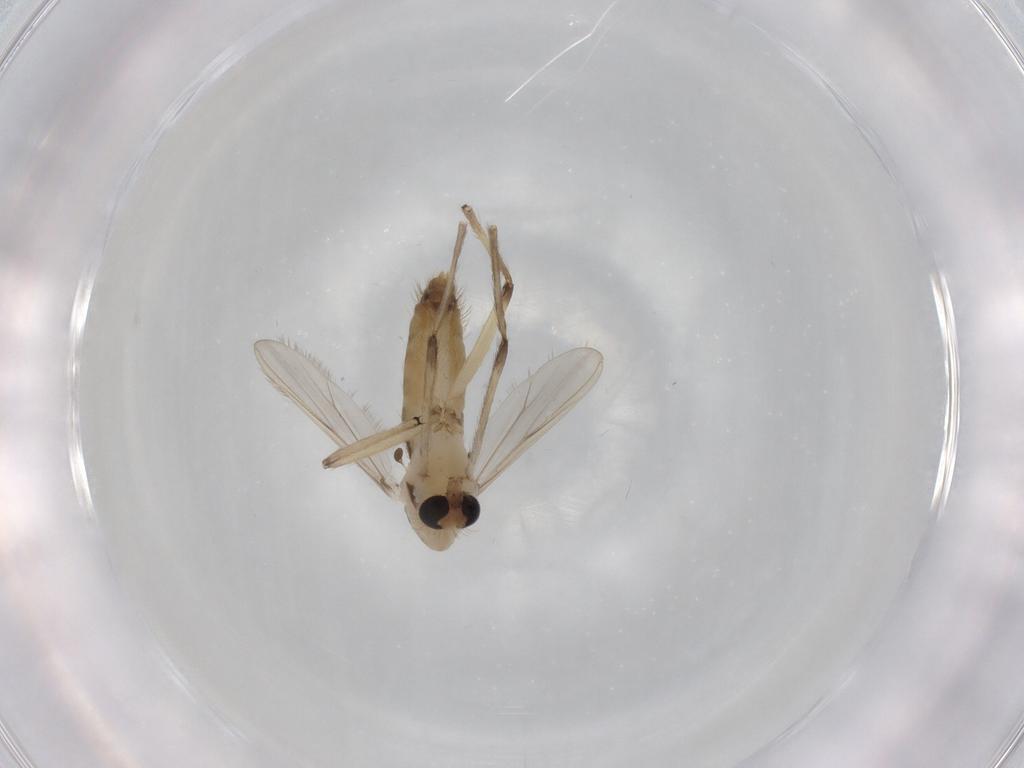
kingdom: Animalia
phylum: Arthropoda
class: Insecta
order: Diptera
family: Chironomidae
